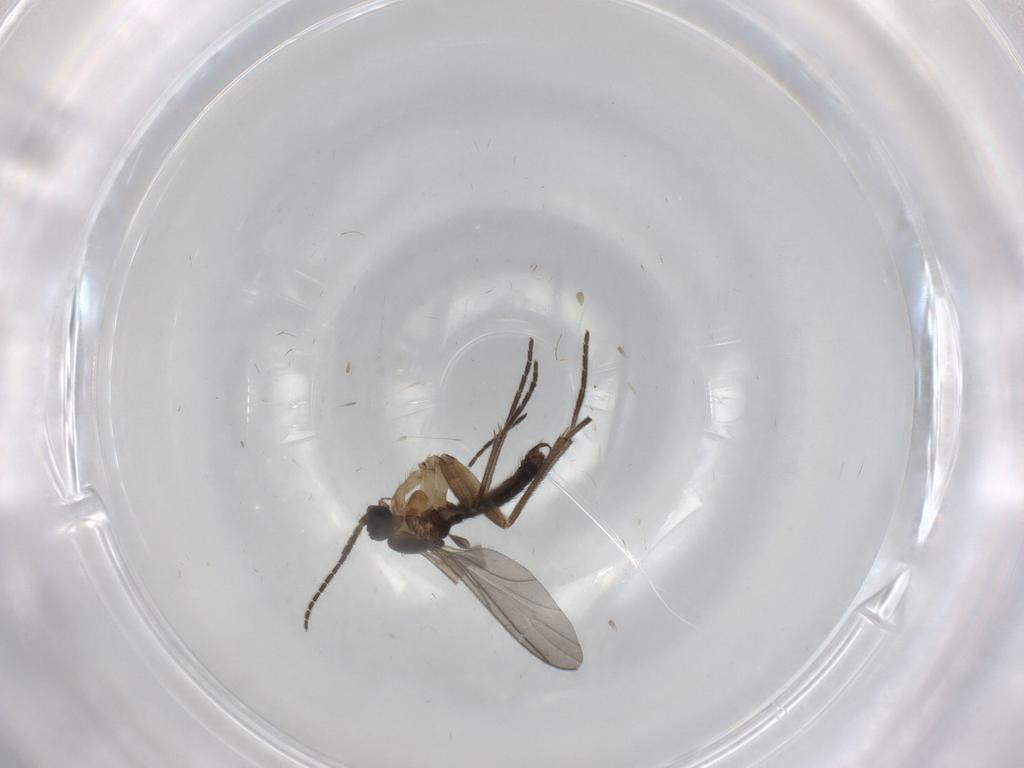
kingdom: Animalia
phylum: Arthropoda
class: Insecta
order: Diptera
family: Sciaridae
